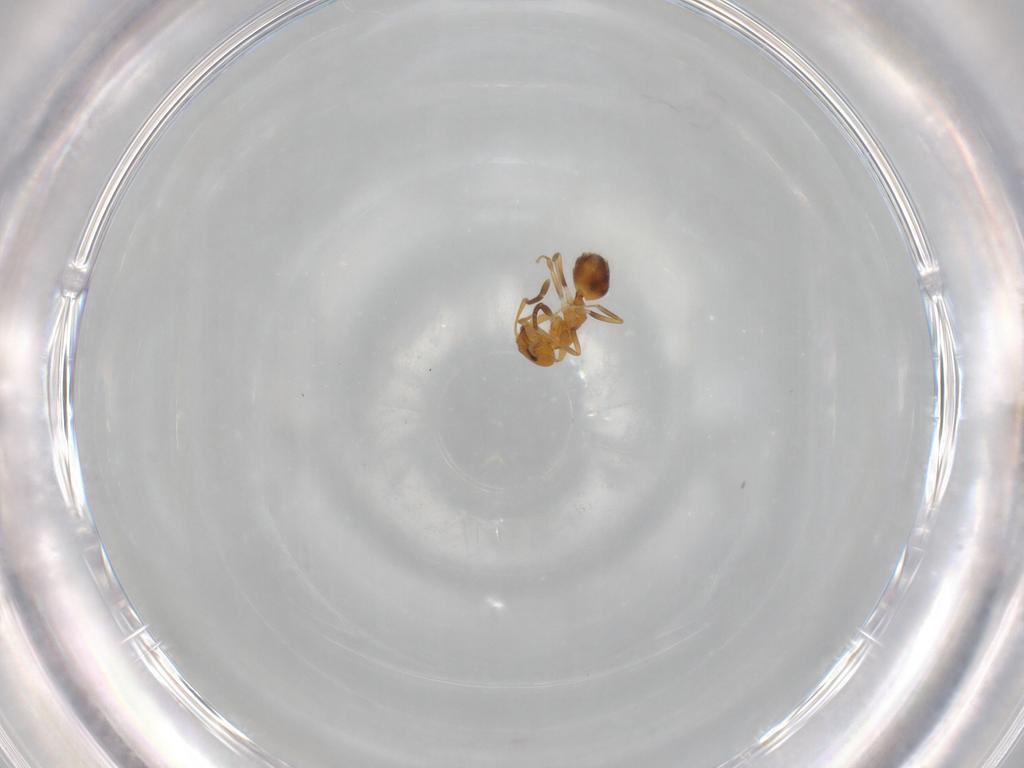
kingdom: Animalia
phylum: Arthropoda
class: Insecta
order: Hymenoptera
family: Formicidae
